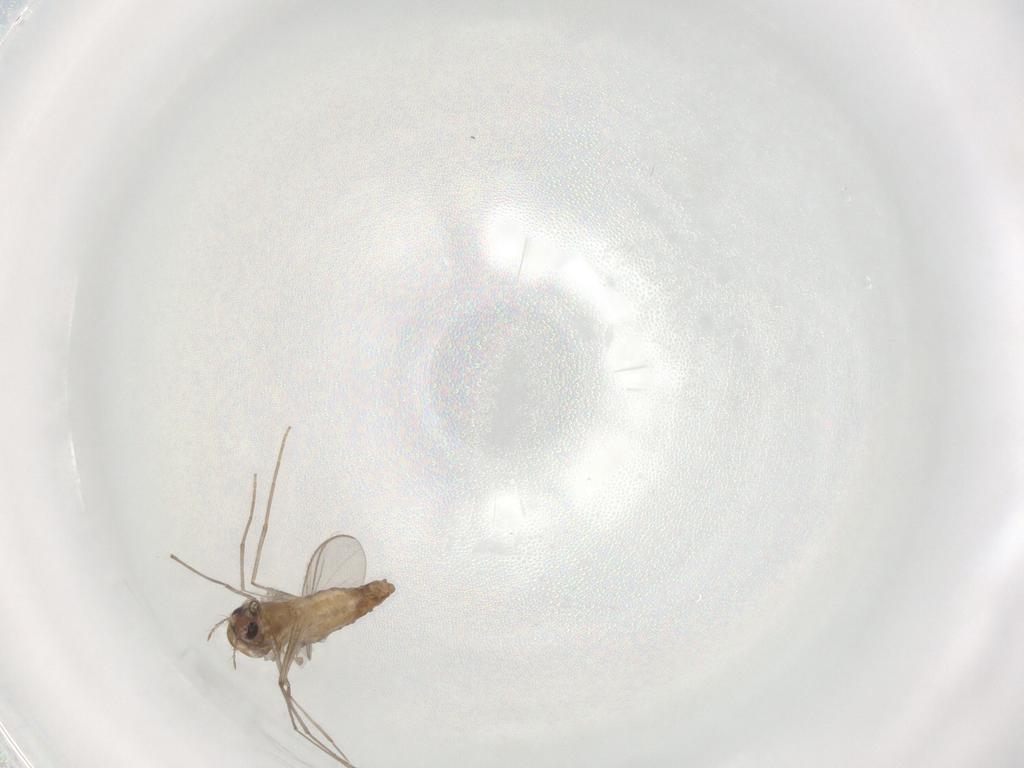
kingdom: Animalia
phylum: Arthropoda
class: Insecta
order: Diptera
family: Chironomidae
